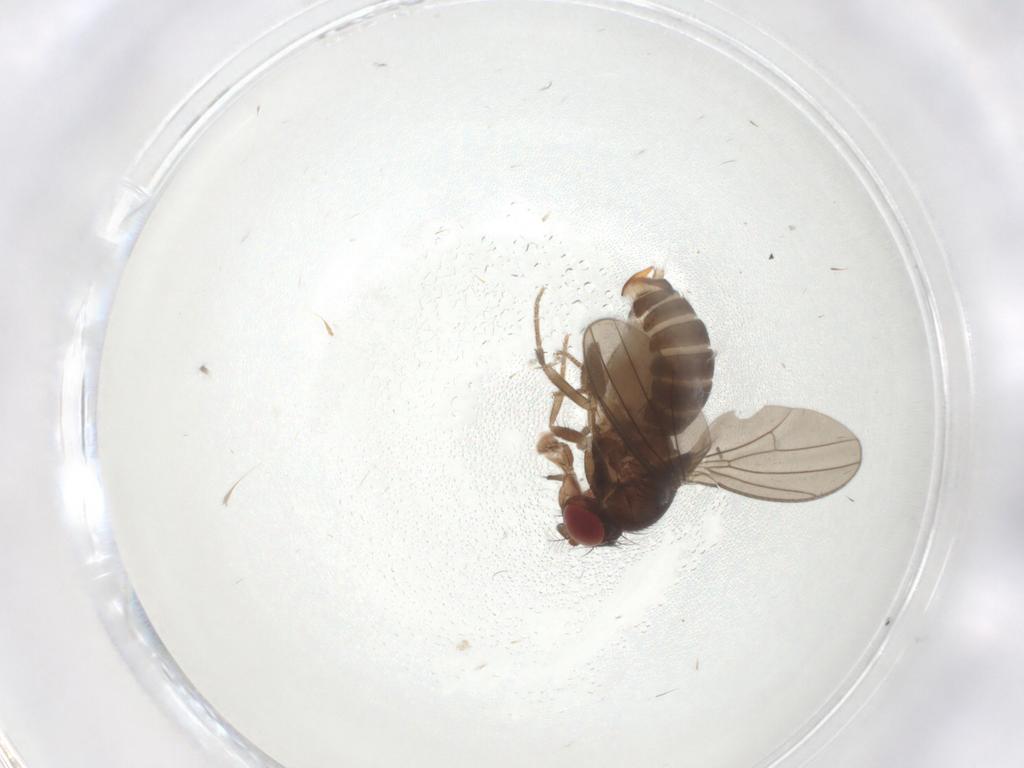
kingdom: Animalia
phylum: Arthropoda
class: Insecta
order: Diptera
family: Drosophilidae
